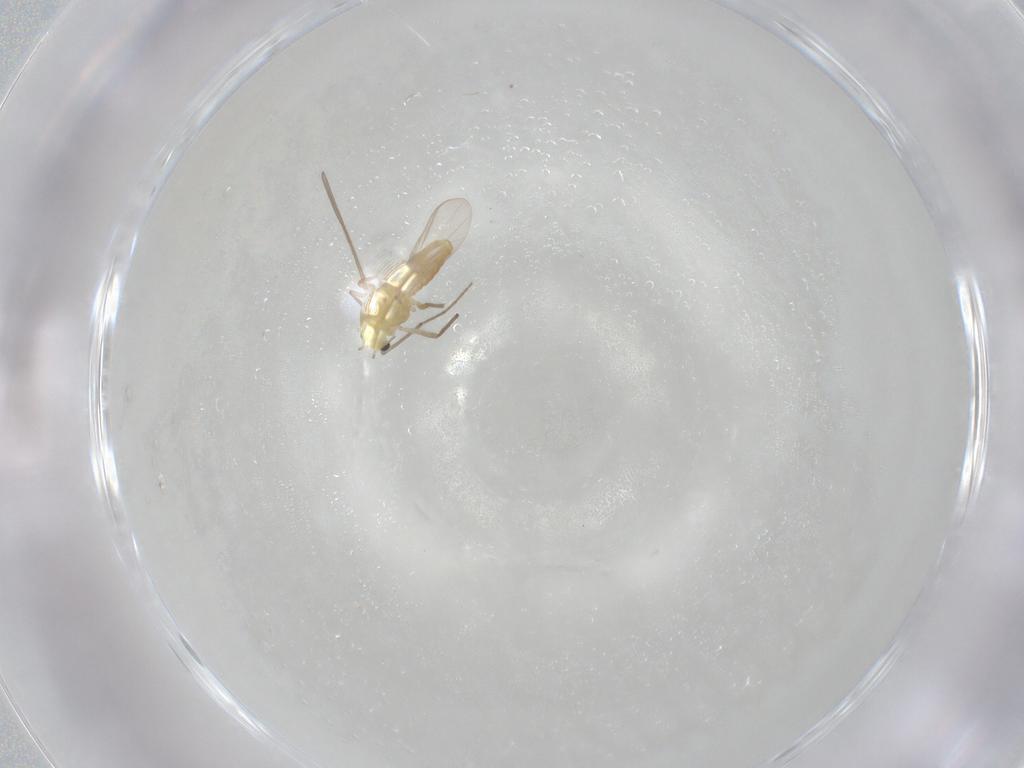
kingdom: Animalia
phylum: Arthropoda
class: Insecta
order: Diptera
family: Chironomidae
